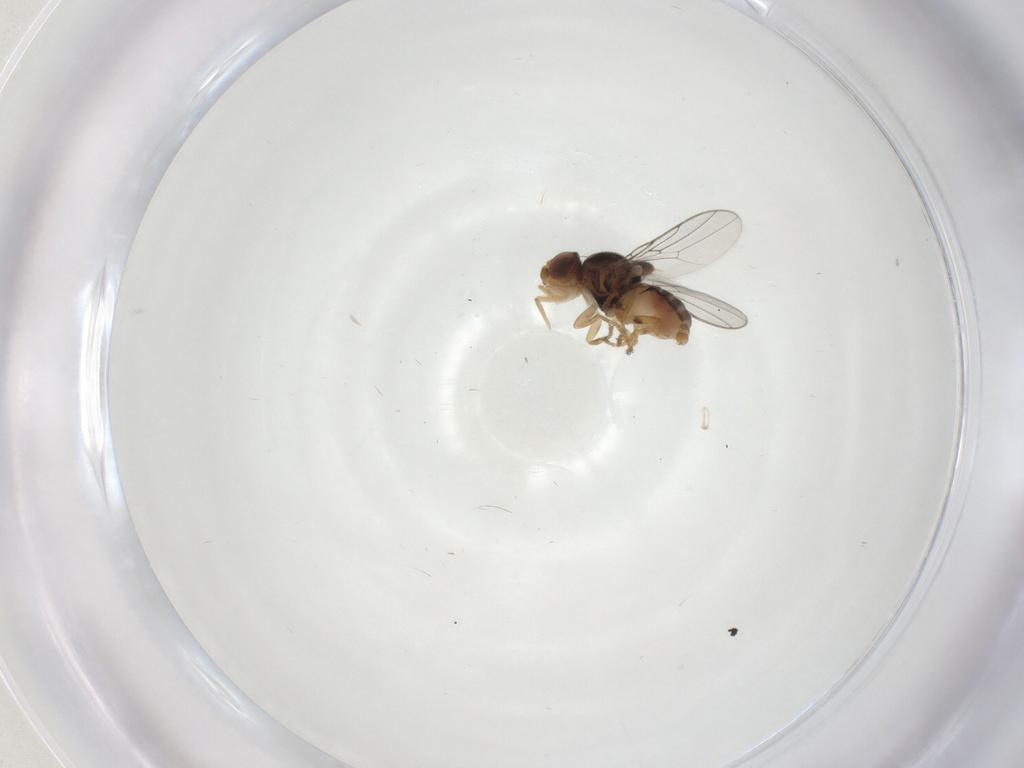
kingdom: Animalia
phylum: Arthropoda
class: Insecta
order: Diptera
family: Chloropidae
